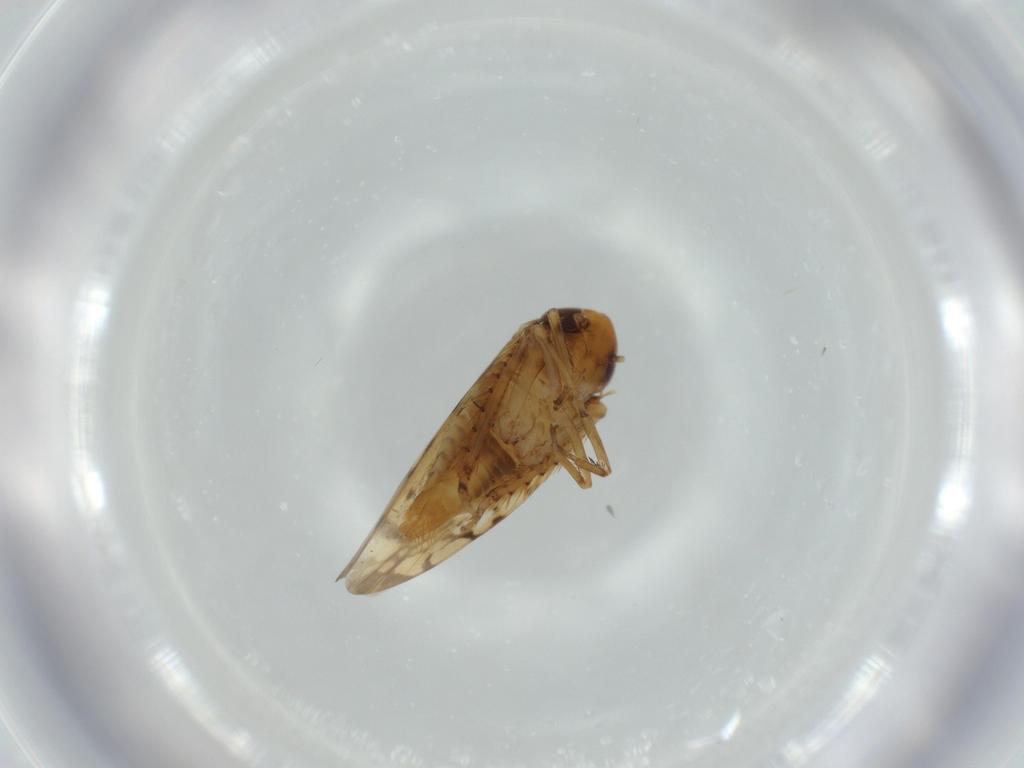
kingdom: Animalia
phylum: Arthropoda
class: Insecta
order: Hemiptera
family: Cicadellidae
